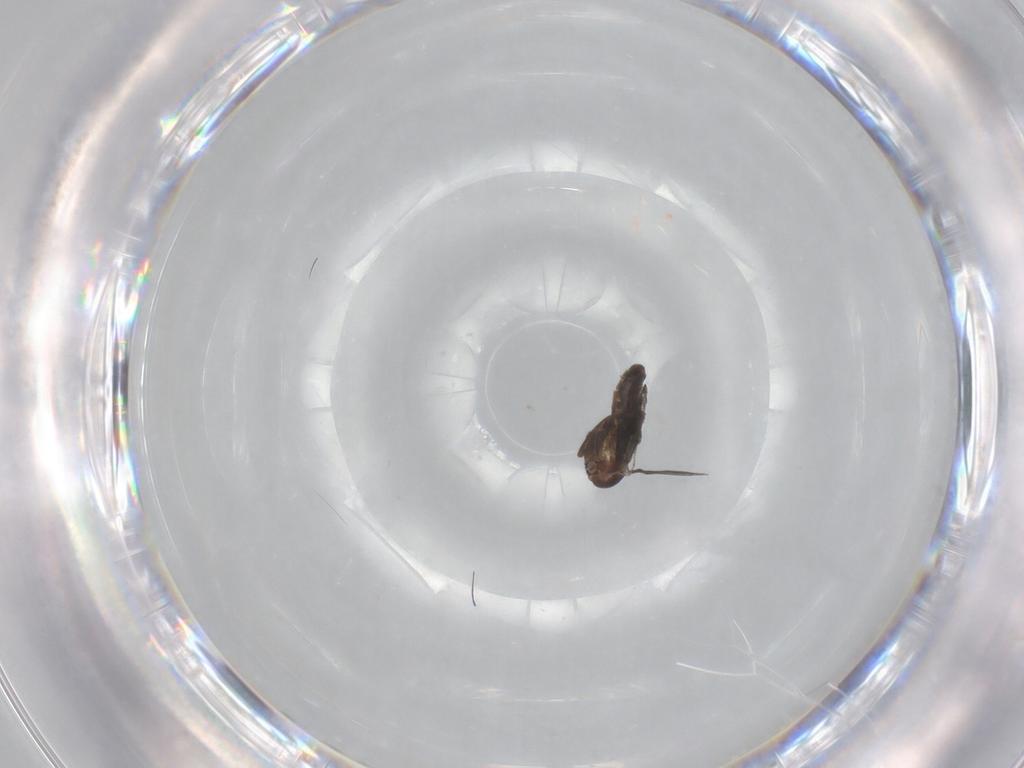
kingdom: Animalia
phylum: Arthropoda
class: Insecta
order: Diptera
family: Cecidomyiidae
